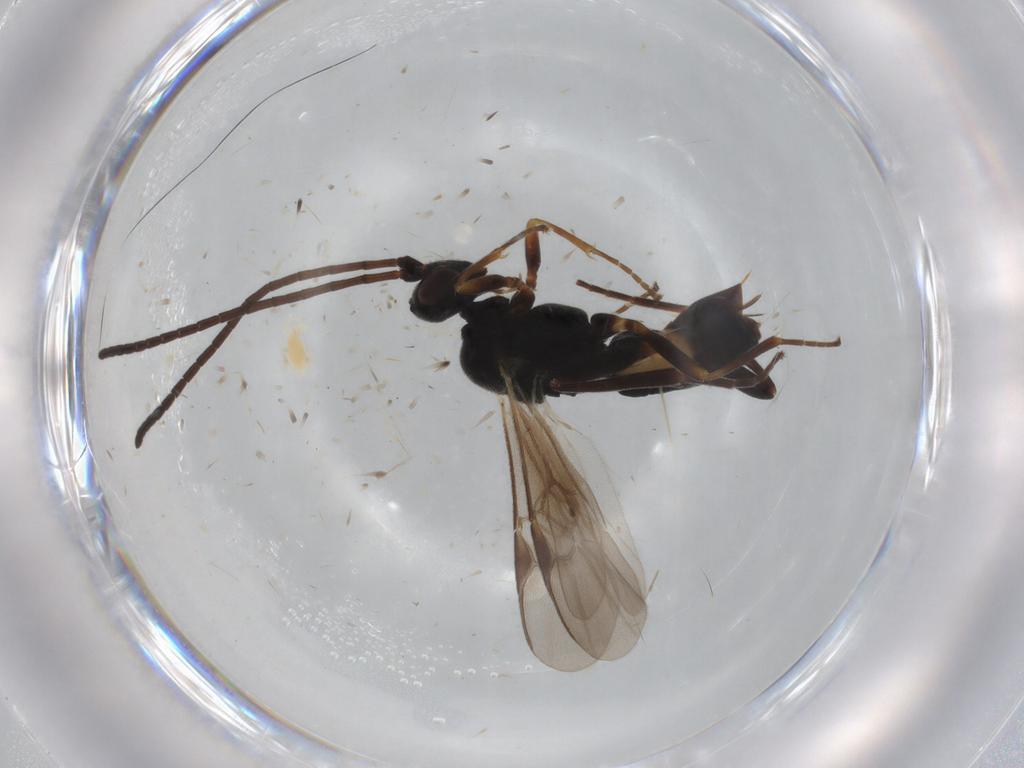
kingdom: Animalia
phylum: Arthropoda
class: Insecta
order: Hymenoptera
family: Braconidae
